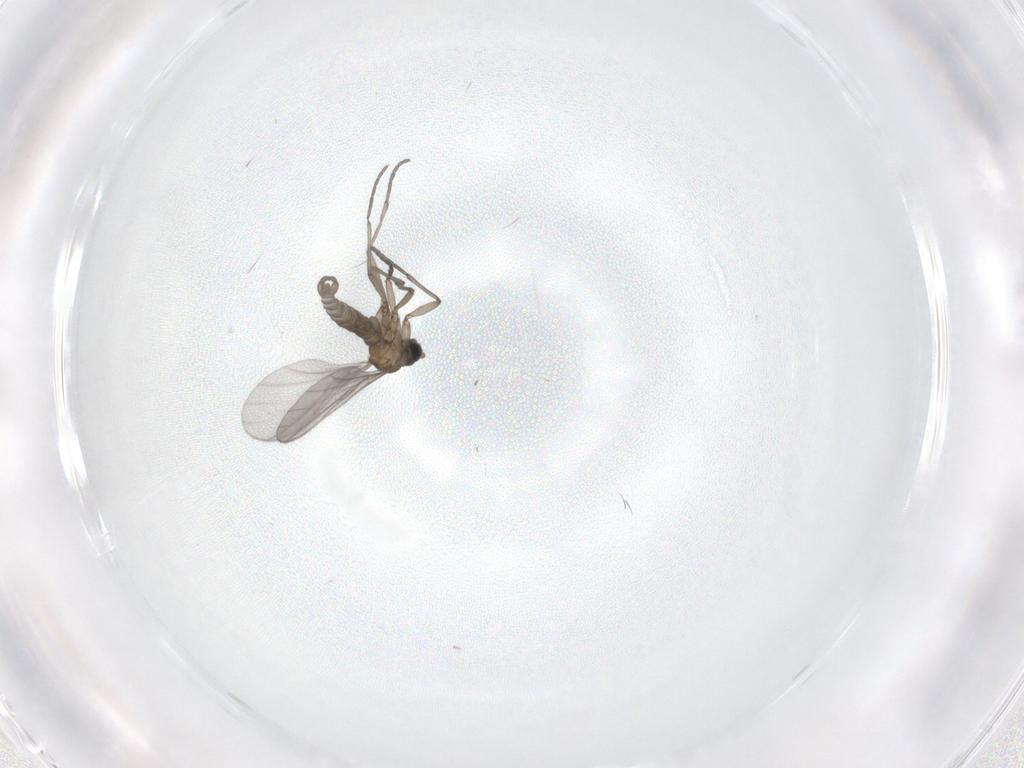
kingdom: Animalia
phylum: Arthropoda
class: Insecta
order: Diptera
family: Sciaridae
